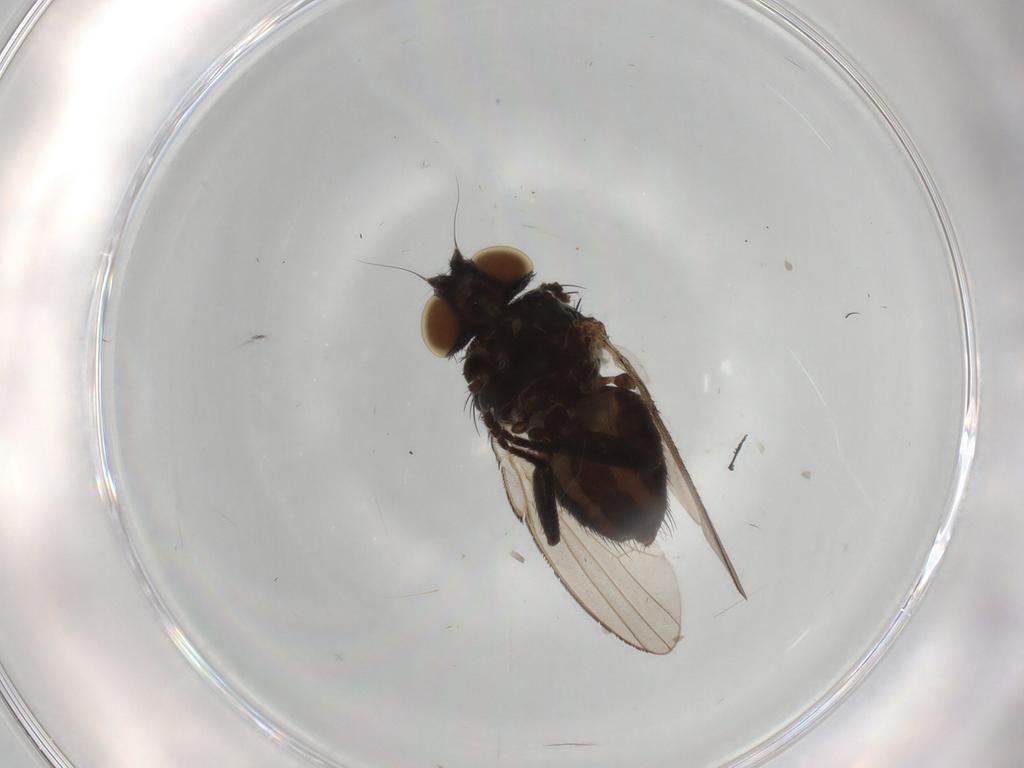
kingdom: Animalia
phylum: Arthropoda
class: Insecta
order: Diptera
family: Milichiidae
